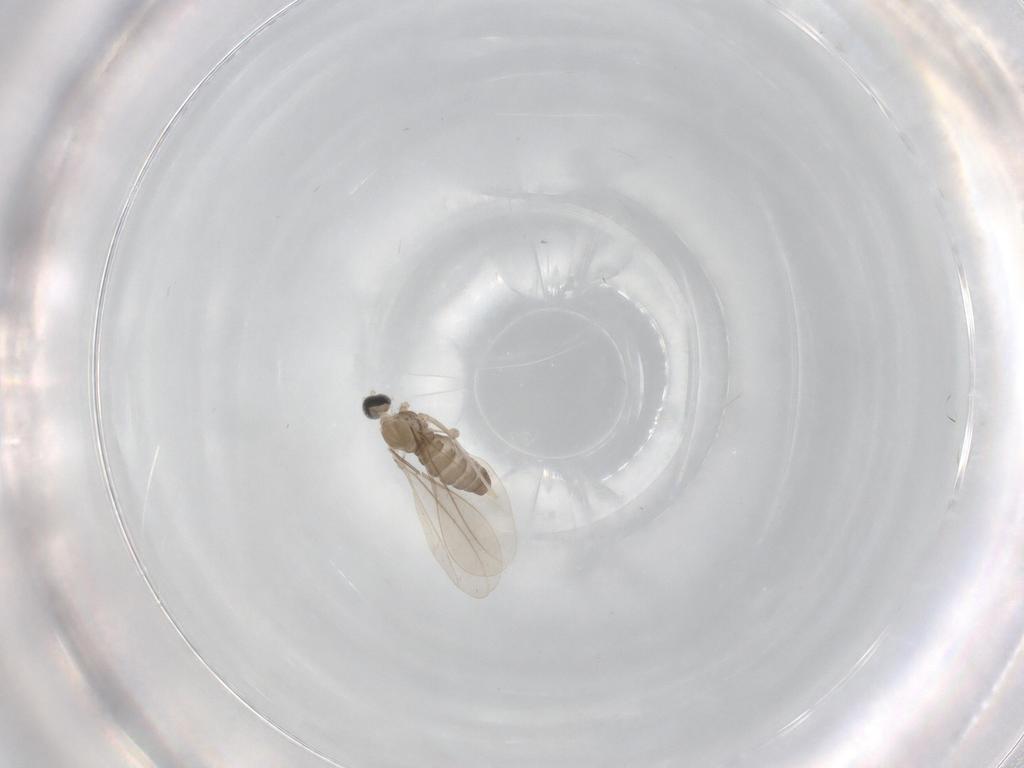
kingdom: Animalia
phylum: Arthropoda
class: Insecta
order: Diptera
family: Cecidomyiidae
